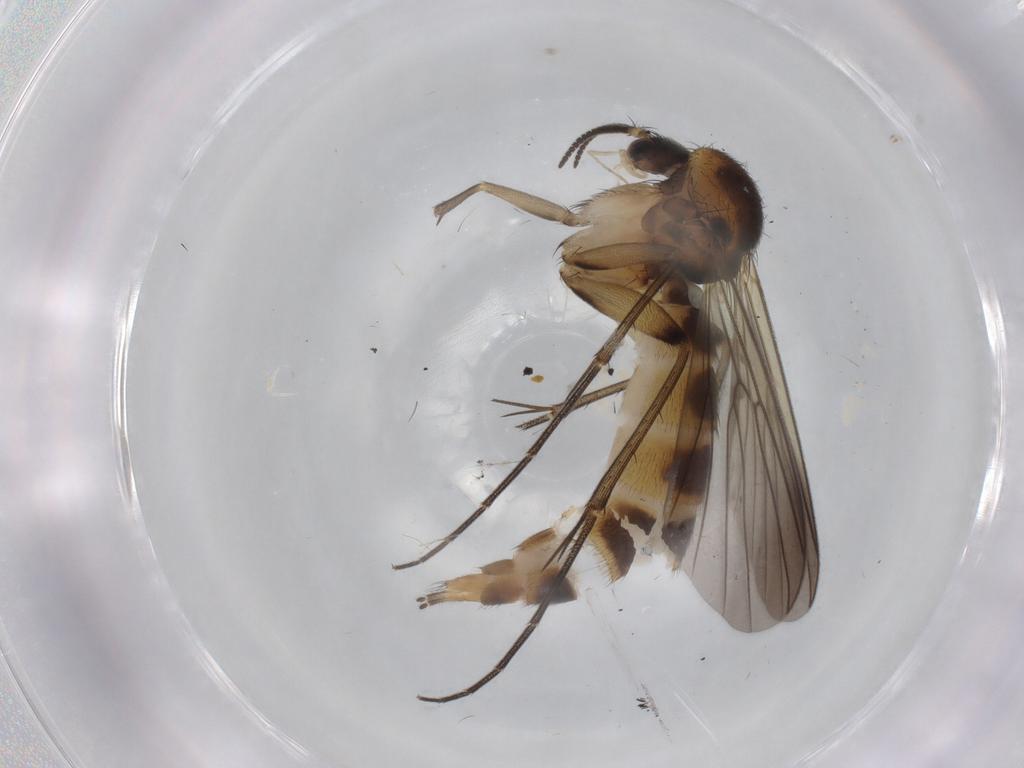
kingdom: Animalia
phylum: Arthropoda
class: Insecta
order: Diptera
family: Mycetophilidae
